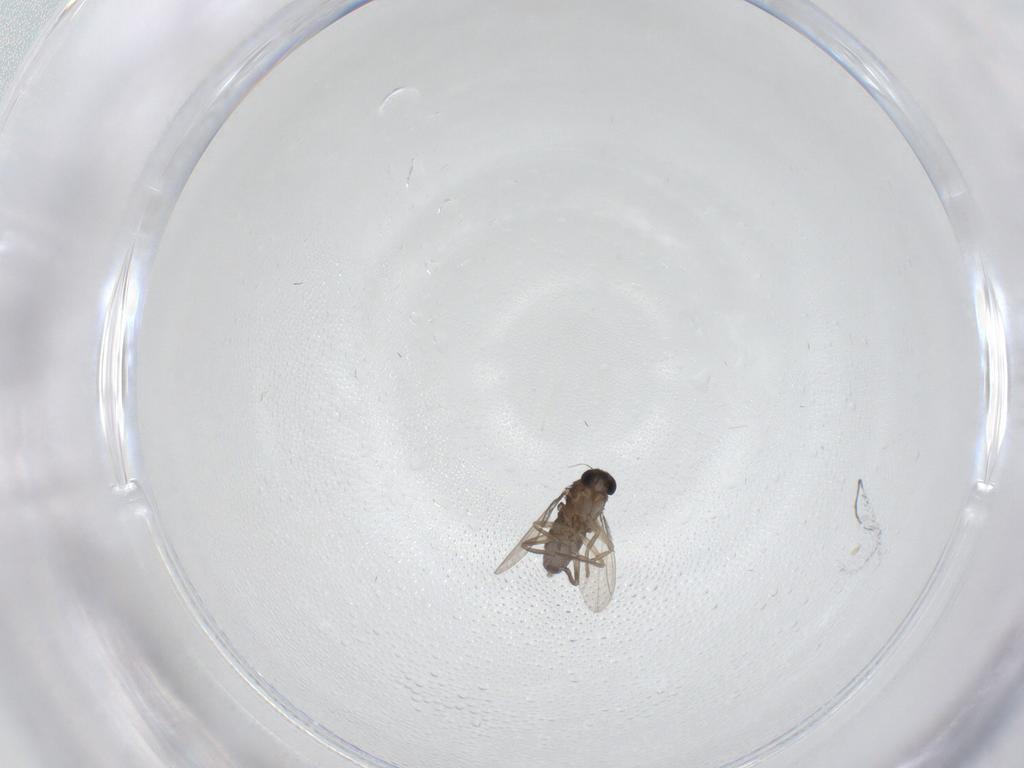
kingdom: Animalia
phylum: Arthropoda
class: Insecta
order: Diptera
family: Phoridae
